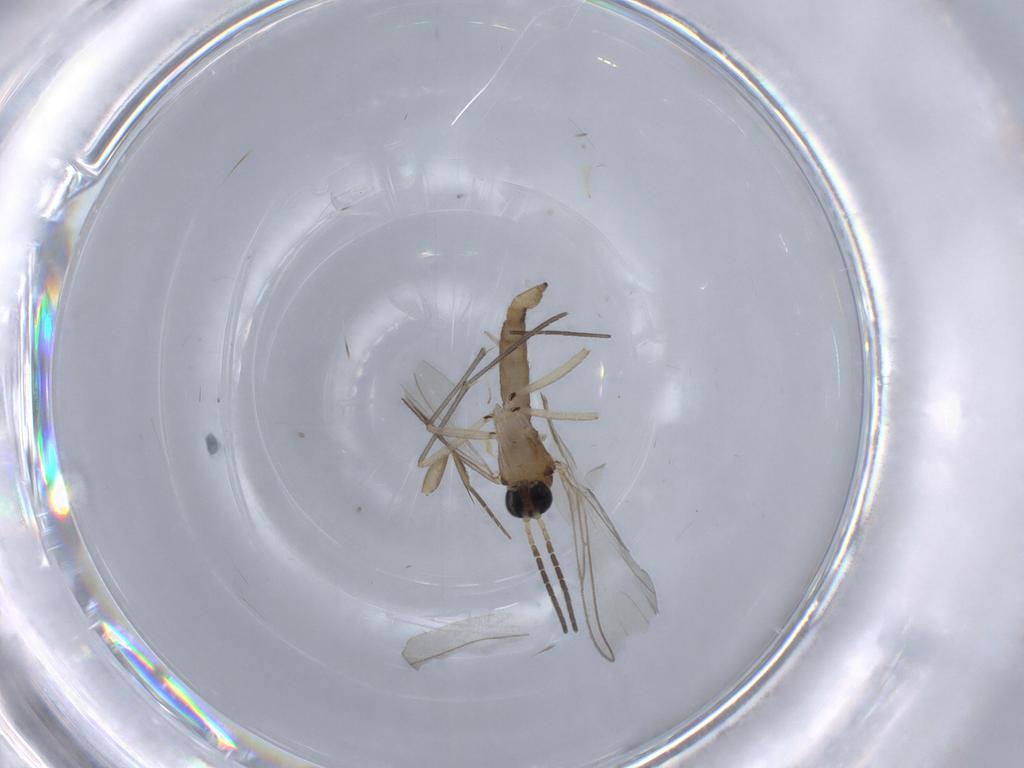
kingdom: Animalia
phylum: Arthropoda
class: Insecta
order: Diptera
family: Sciaridae
